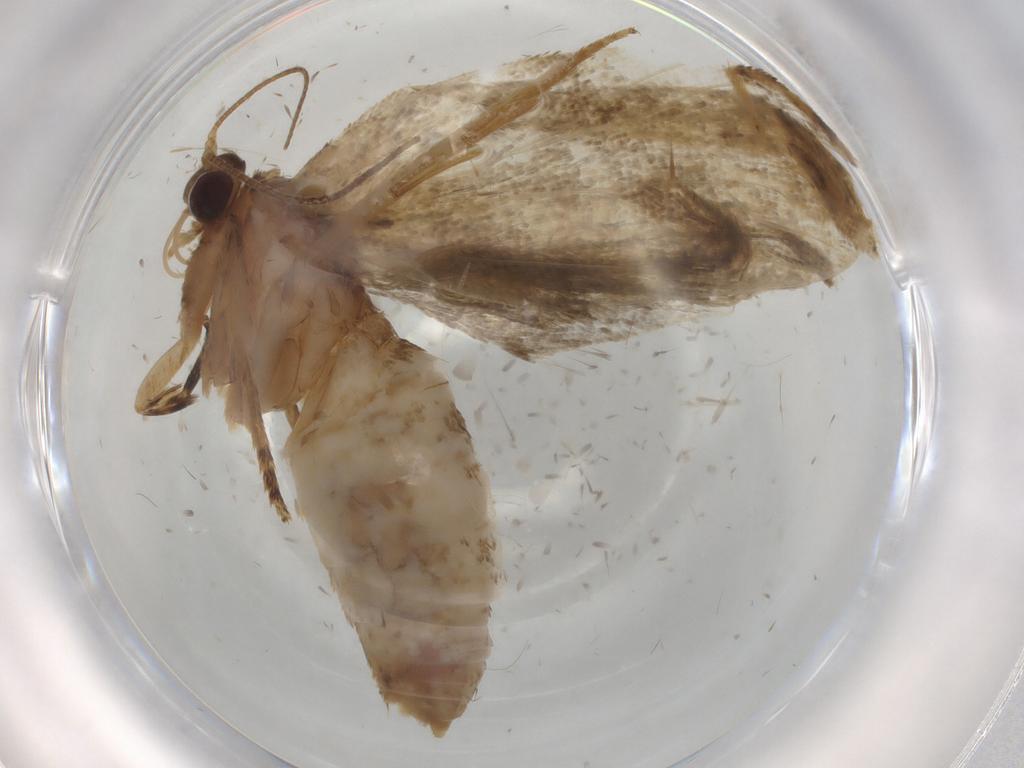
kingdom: Animalia
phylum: Arthropoda
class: Insecta
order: Lepidoptera
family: Tortricidae
